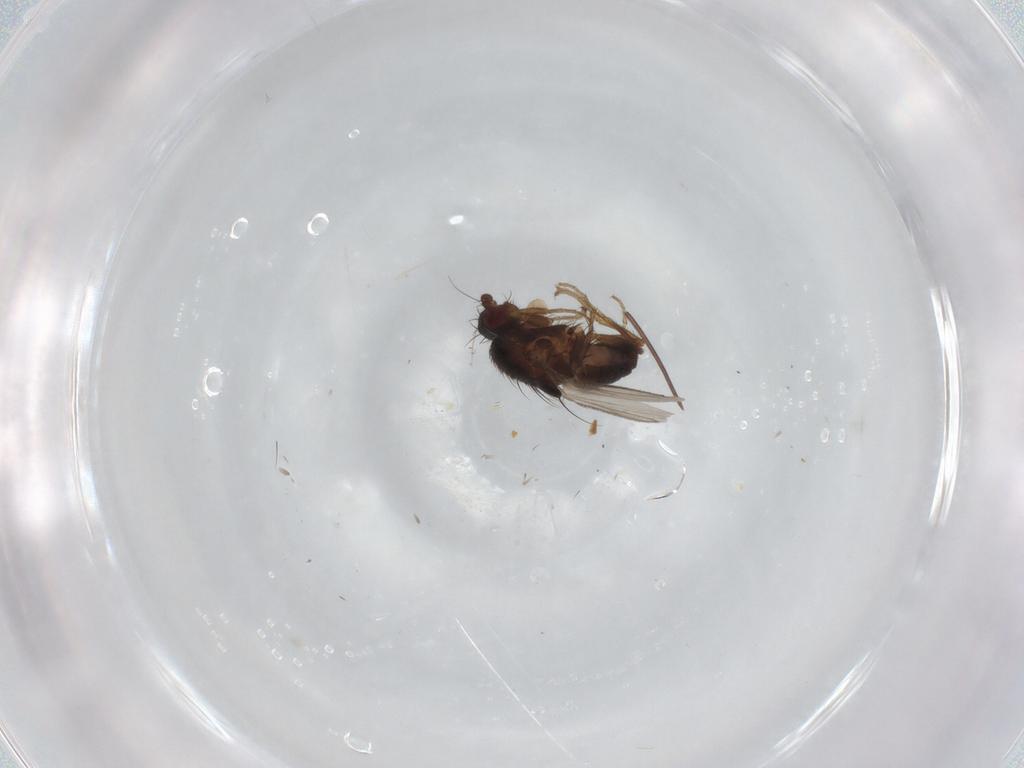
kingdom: Animalia
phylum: Arthropoda
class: Insecta
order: Diptera
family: Sphaeroceridae
